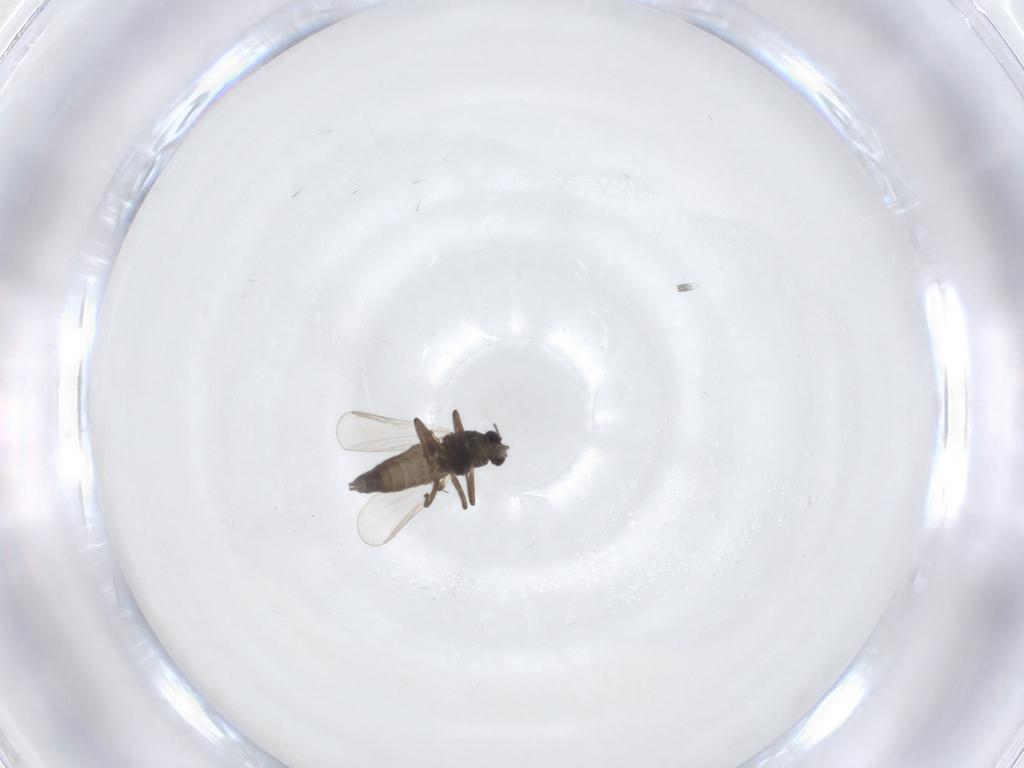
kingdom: Animalia
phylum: Arthropoda
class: Insecta
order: Diptera
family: Chironomidae
